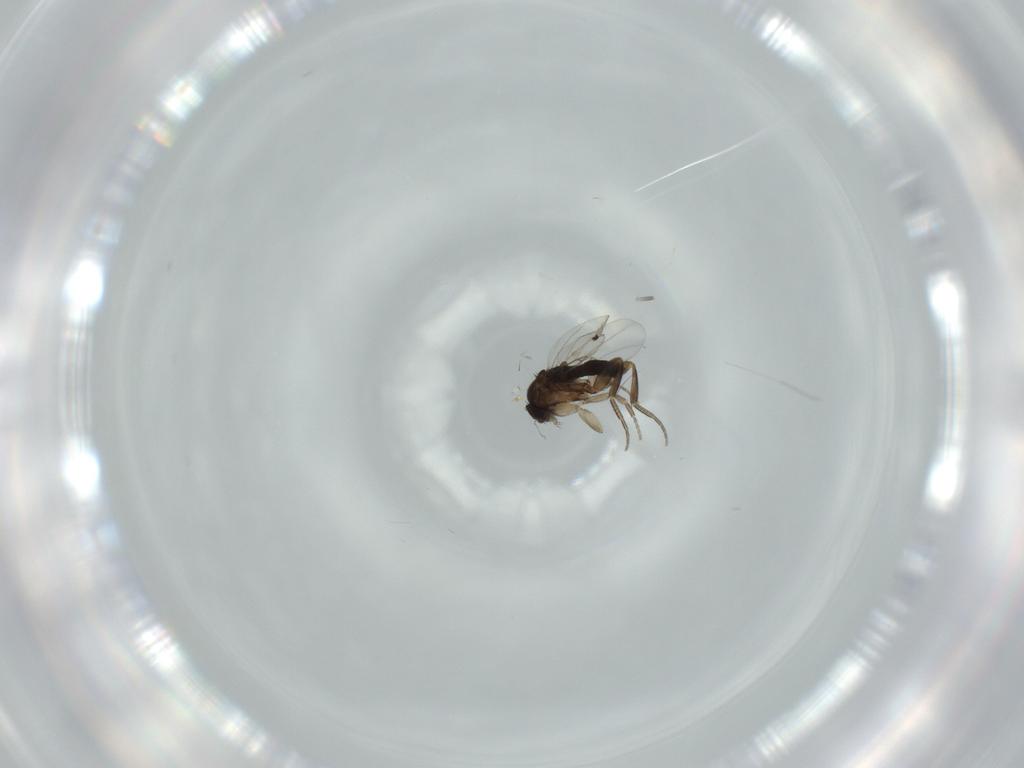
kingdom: Animalia
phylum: Arthropoda
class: Insecta
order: Diptera
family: Phoridae
